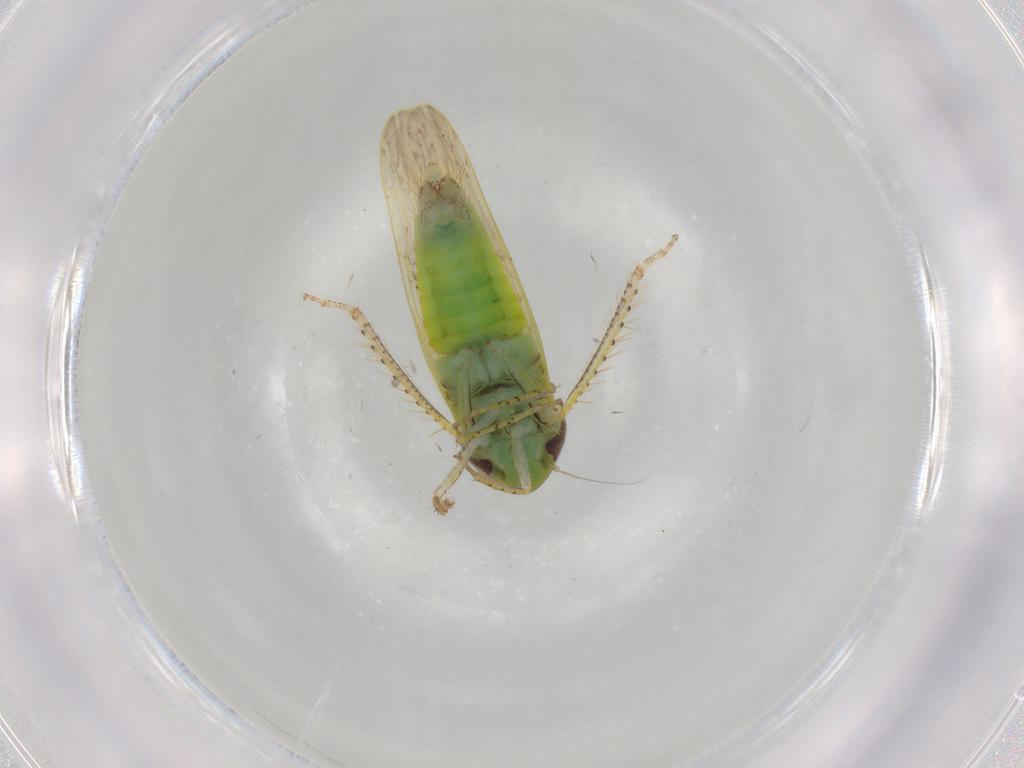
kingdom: Animalia
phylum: Arthropoda
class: Insecta
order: Hemiptera
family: Cicadellidae
